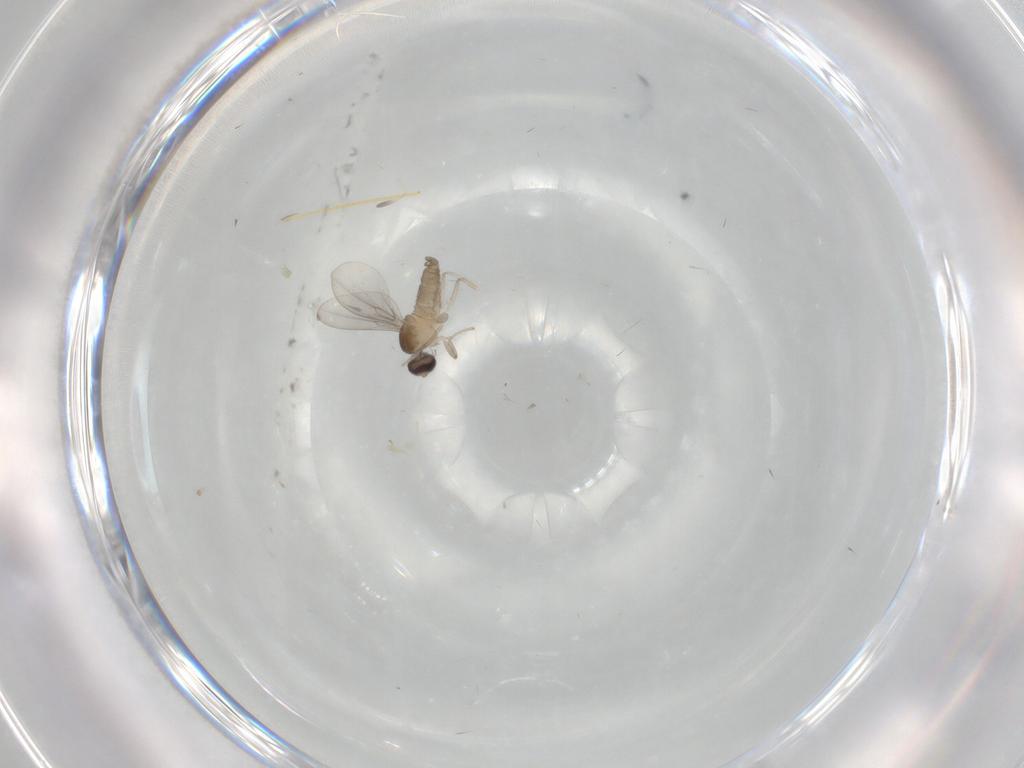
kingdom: Animalia
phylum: Arthropoda
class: Insecta
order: Diptera
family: Cecidomyiidae
